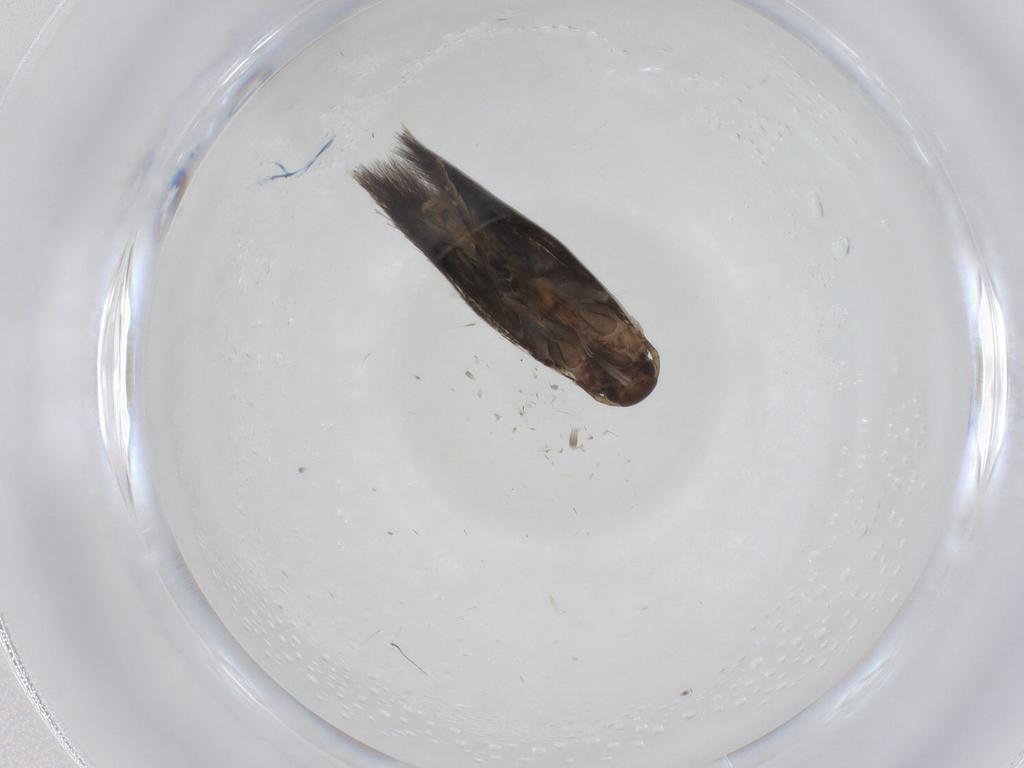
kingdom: Animalia
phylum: Arthropoda
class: Insecta
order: Lepidoptera
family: Elachistidae
